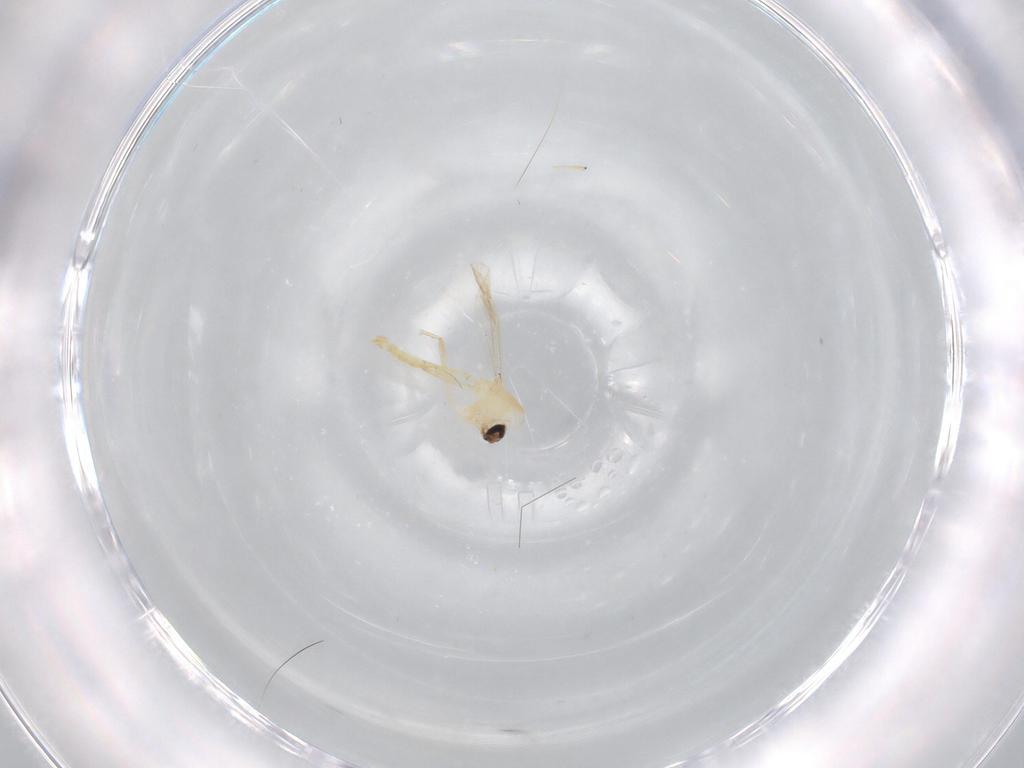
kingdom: Animalia
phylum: Arthropoda
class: Insecta
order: Diptera
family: Chironomidae
